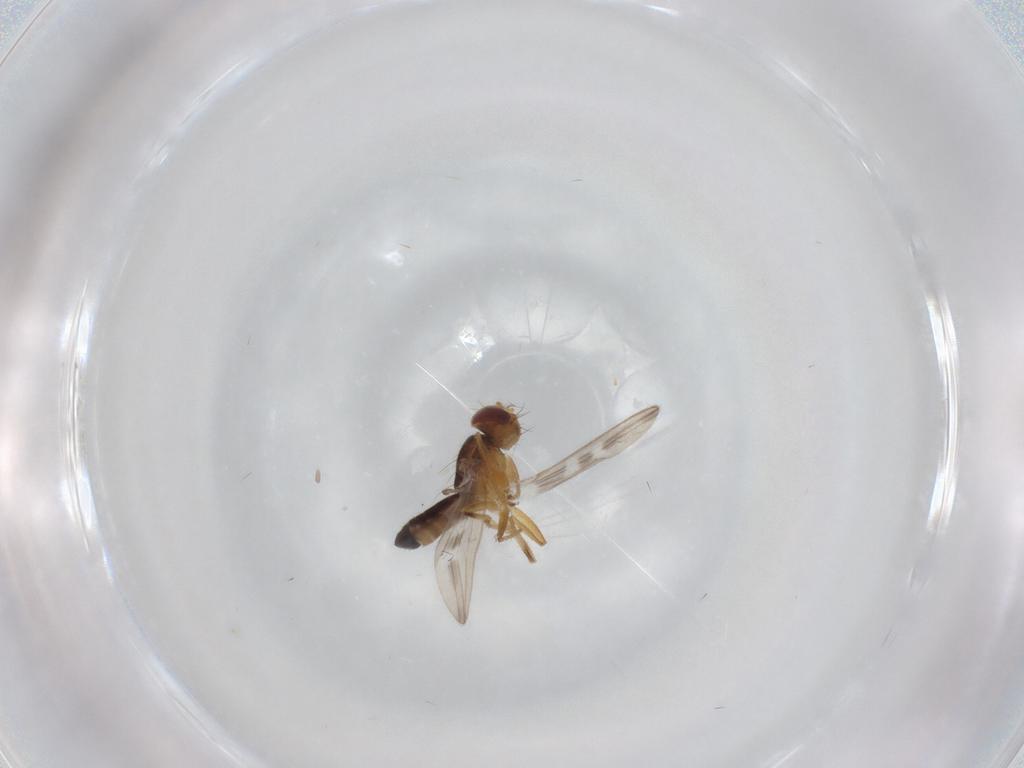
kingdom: Animalia
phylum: Arthropoda
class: Insecta
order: Diptera
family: Periscelididae
